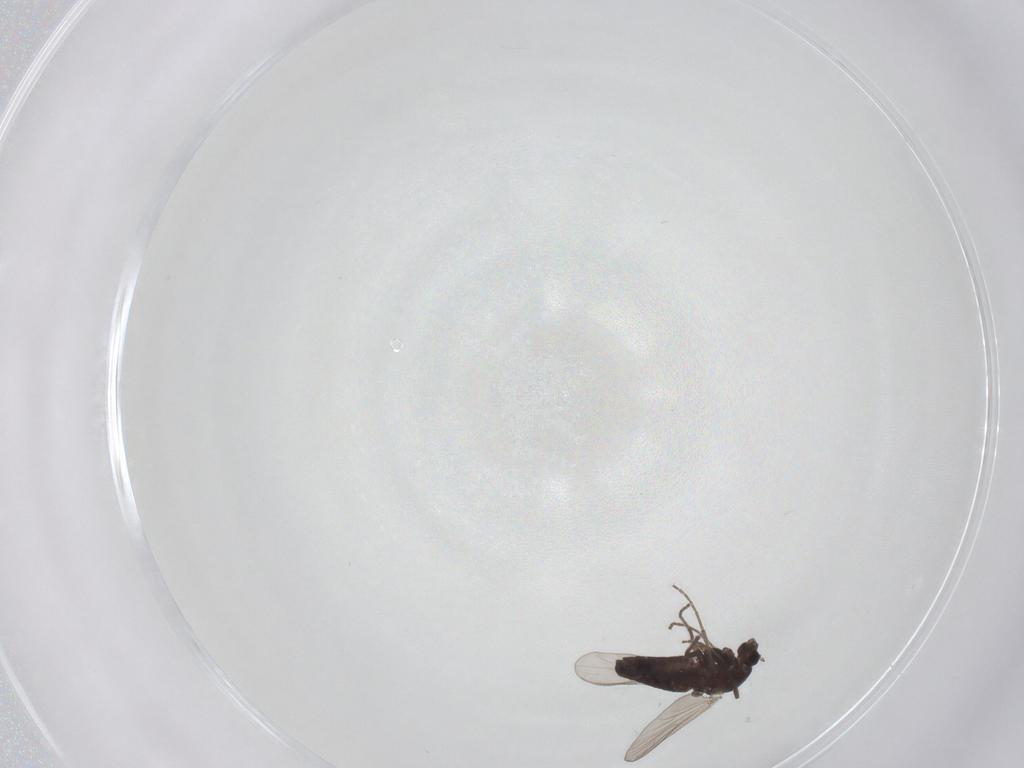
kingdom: Animalia
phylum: Arthropoda
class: Insecta
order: Diptera
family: Chironomidae
